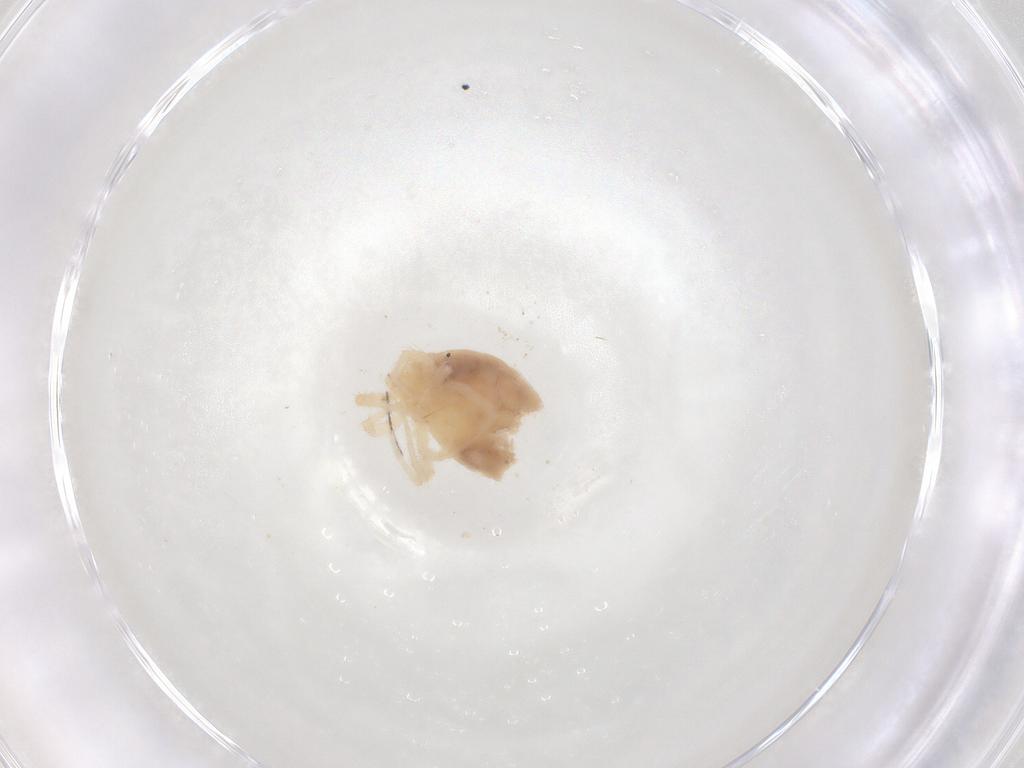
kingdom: Animalia
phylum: Arthropoda
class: Arachnida
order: Trombidiformes
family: Anystidae
